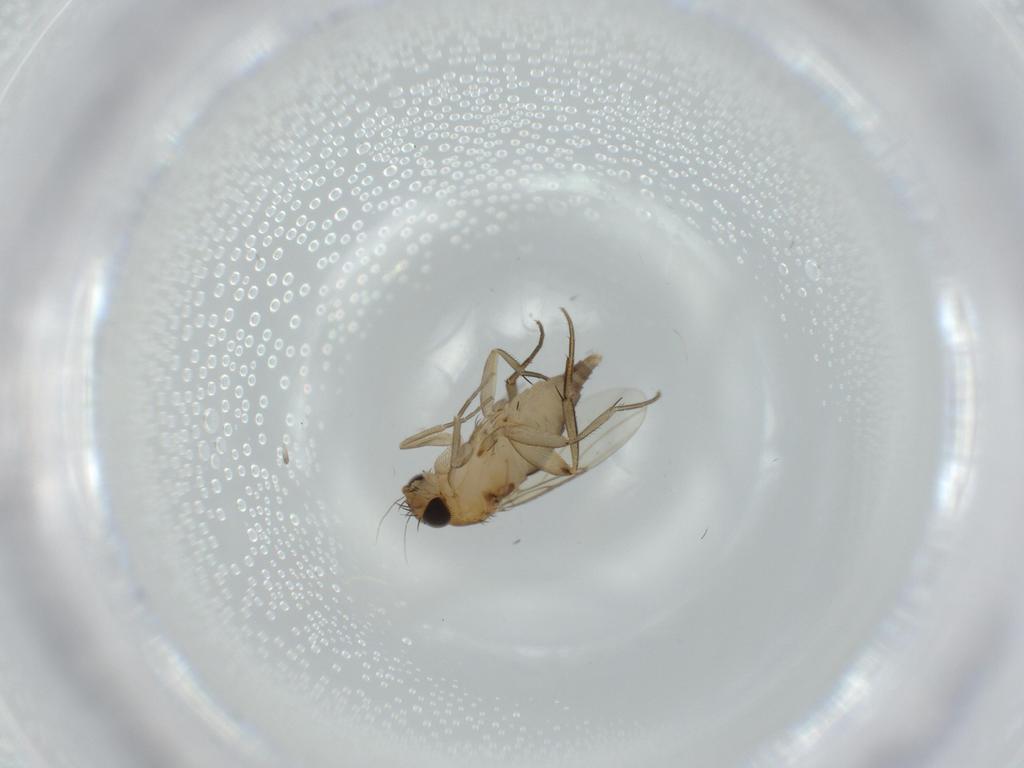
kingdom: Animalia
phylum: Arthropoda
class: Insecta
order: Diptera
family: Phoridae
